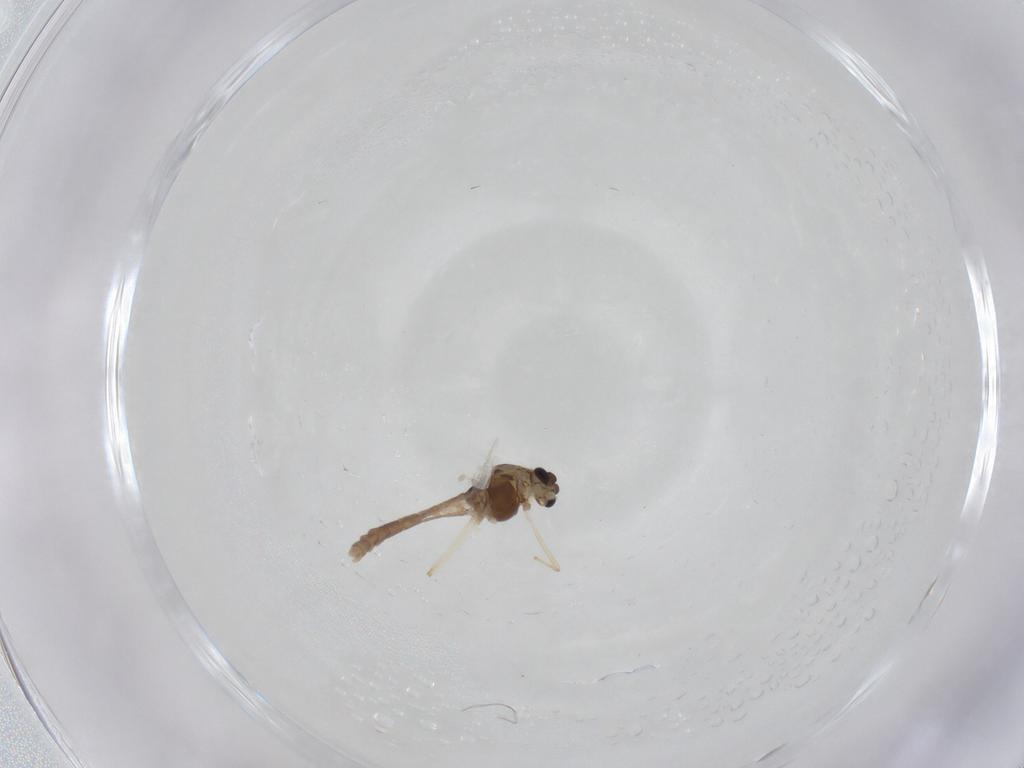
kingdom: Animalia
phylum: Arthropoda
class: Insecta
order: Diptera
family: Chironomidae
